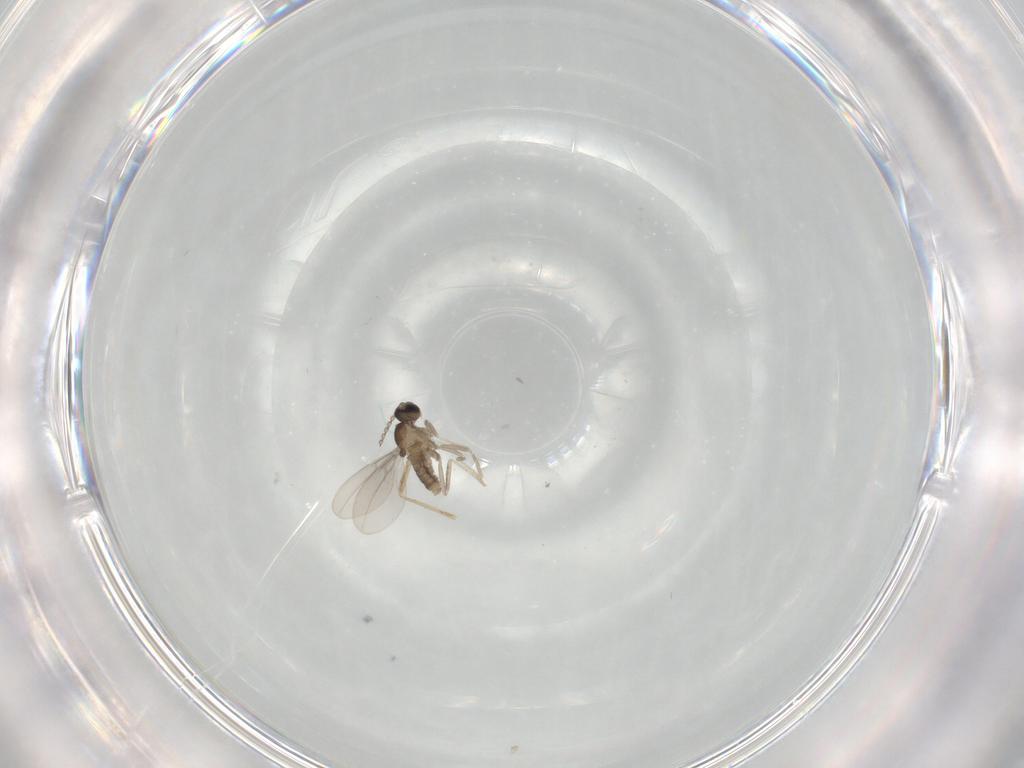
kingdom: Animalia
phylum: Arthropoda
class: Insecta
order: Diptera
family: Cecidomyiidae
